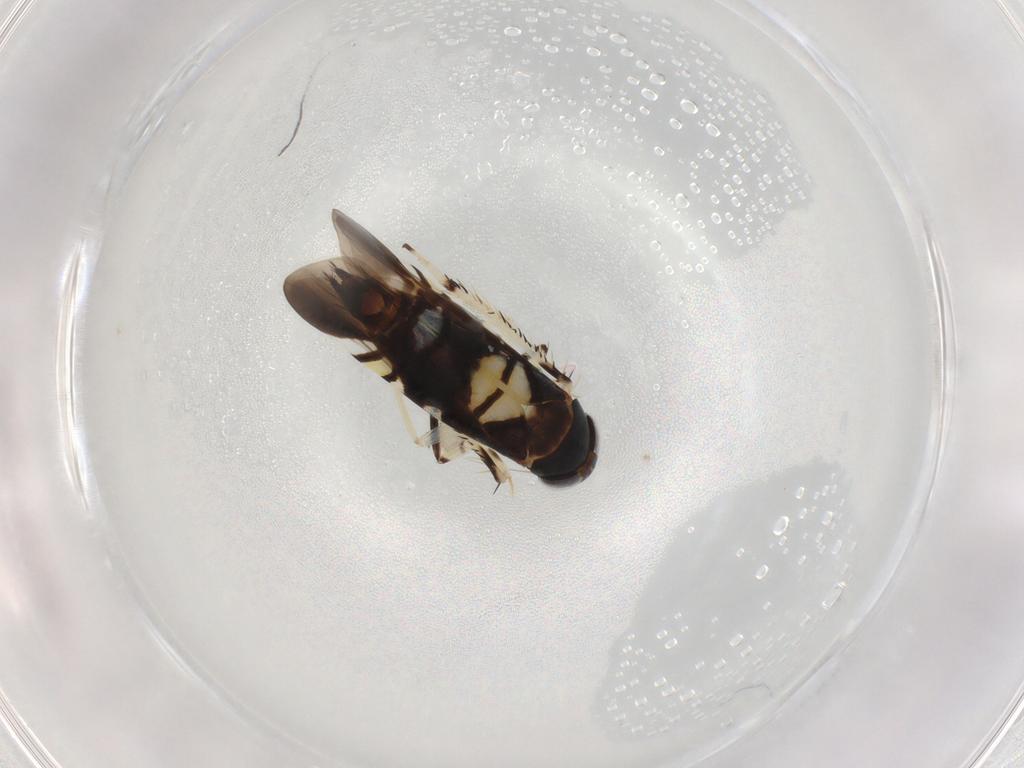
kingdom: Animalia
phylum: Arthropoda
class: Insecta
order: Hemiptera
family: Cicadellidae
